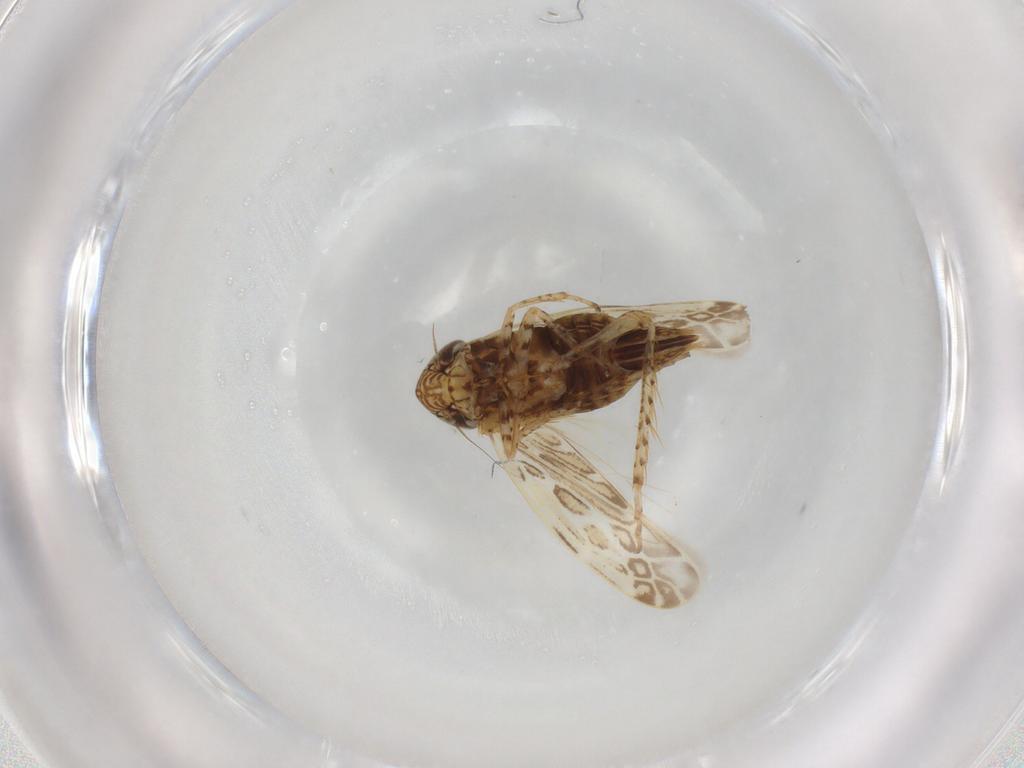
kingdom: Animalia
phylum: Arthropoda
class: Insecta
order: Hemiptera
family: Cicadellidae
